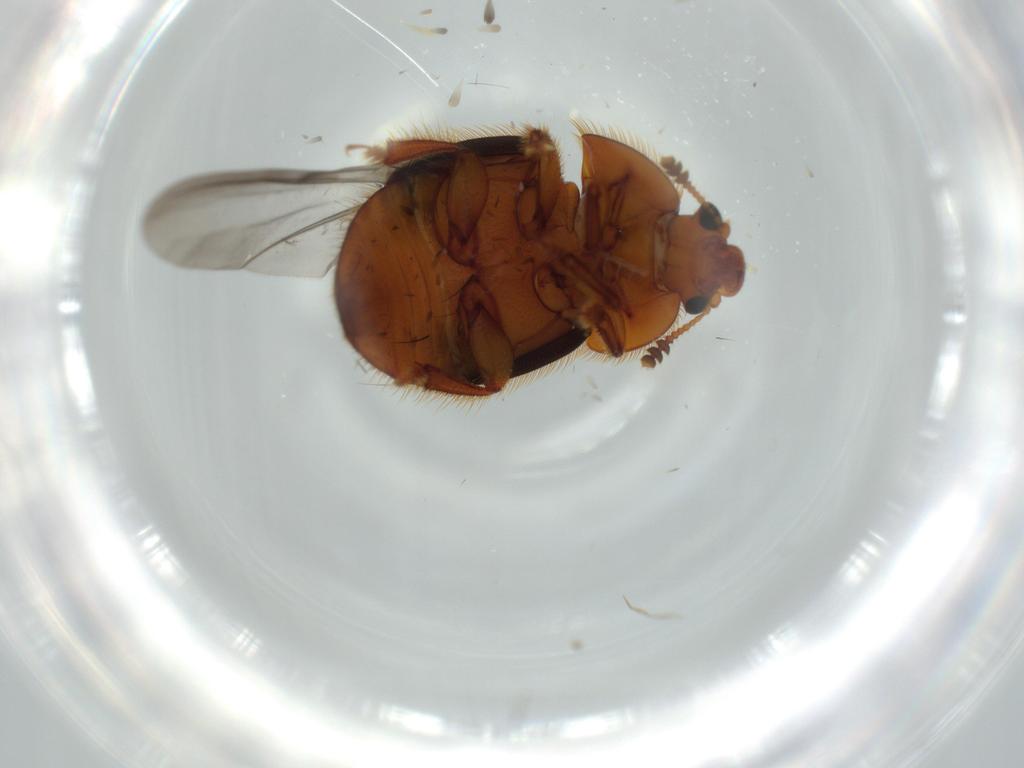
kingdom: Animalia
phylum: Arthropoda
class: Insecta
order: Coleoptera
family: Nitidulidae
